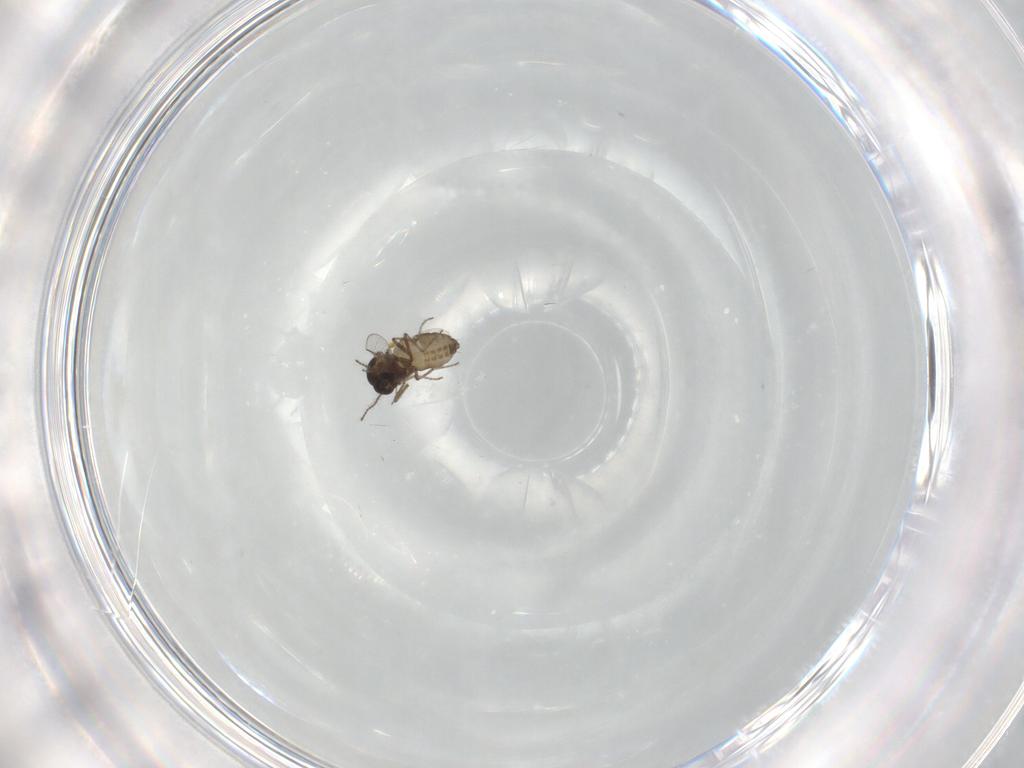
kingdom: Animalia
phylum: Arthropoda
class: Insecta
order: Diptera
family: Ceratopogonidae
